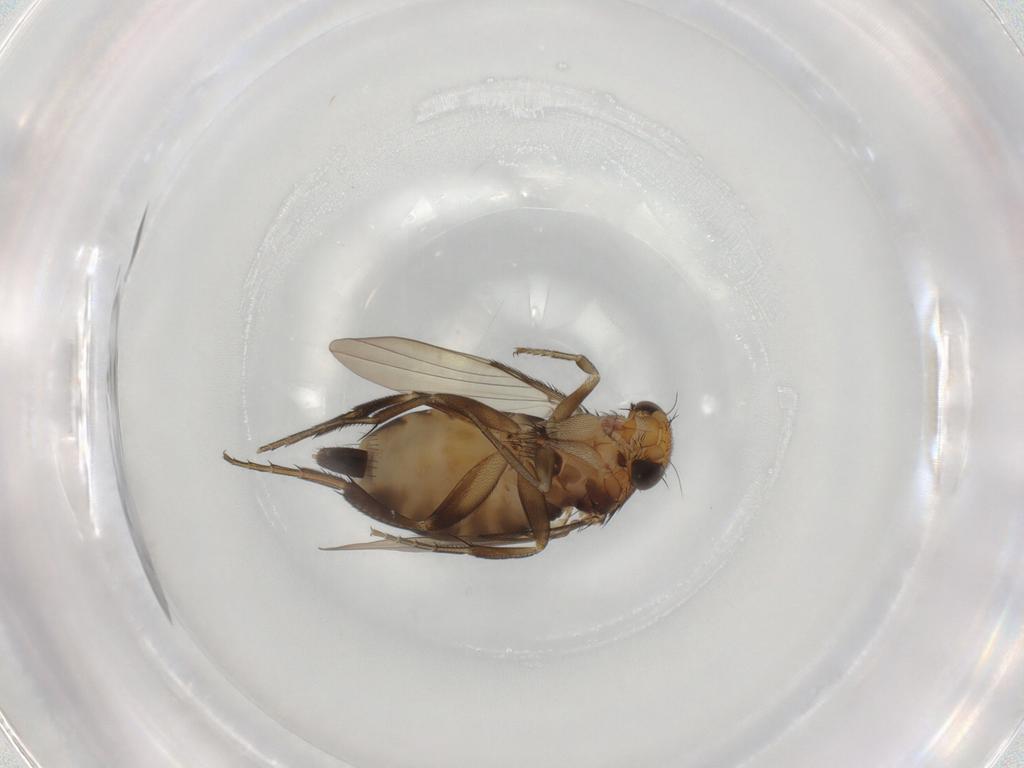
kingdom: Animalia
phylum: Arthropoda
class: Insecta
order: Diptera
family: Phoridae
